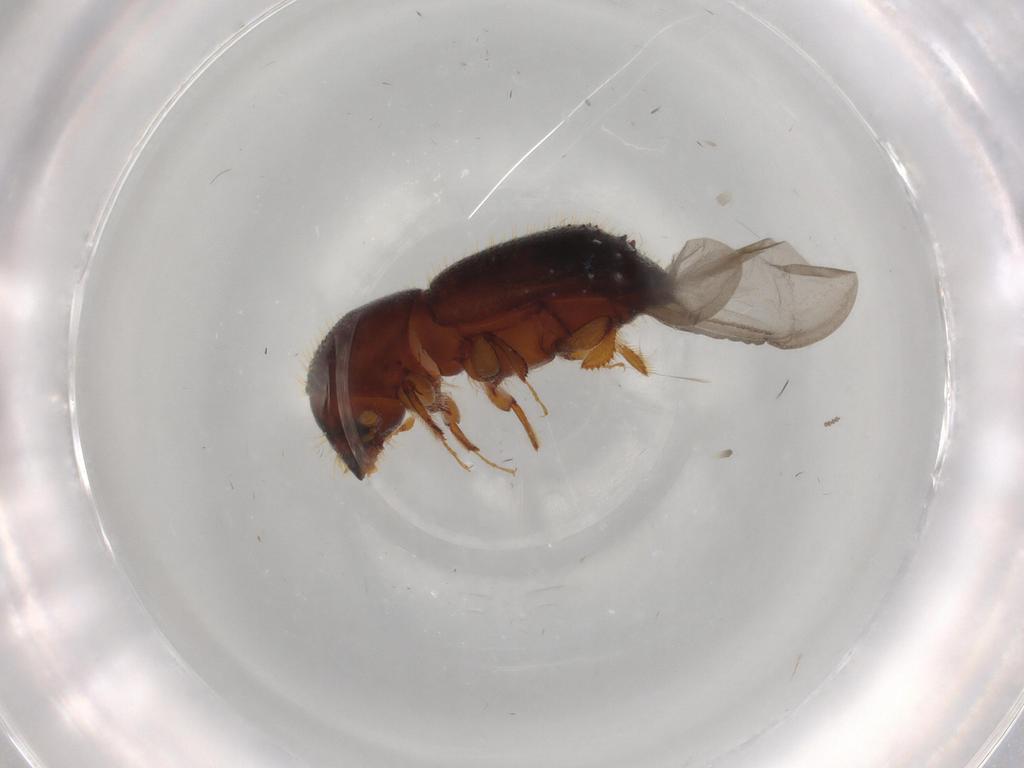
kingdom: Animalia
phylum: Arthropoda
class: Insecta
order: Coleoptera
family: Curculionidae
